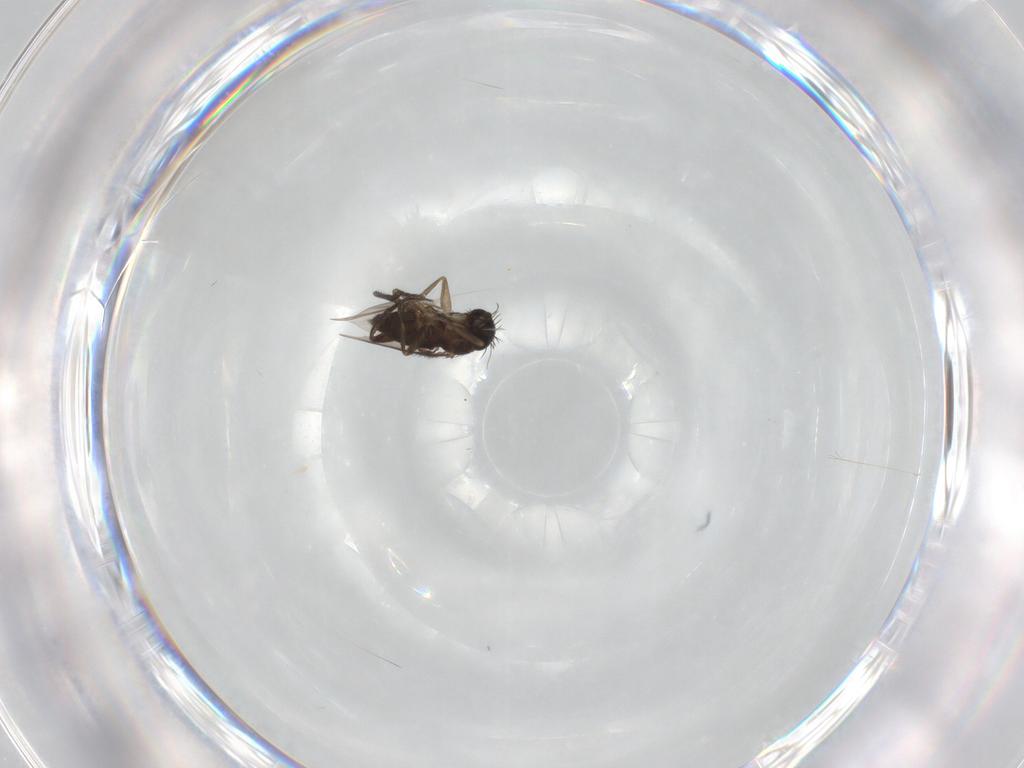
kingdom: Animalia
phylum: Arthropoda
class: Insecta
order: Diptera
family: Phoridae
